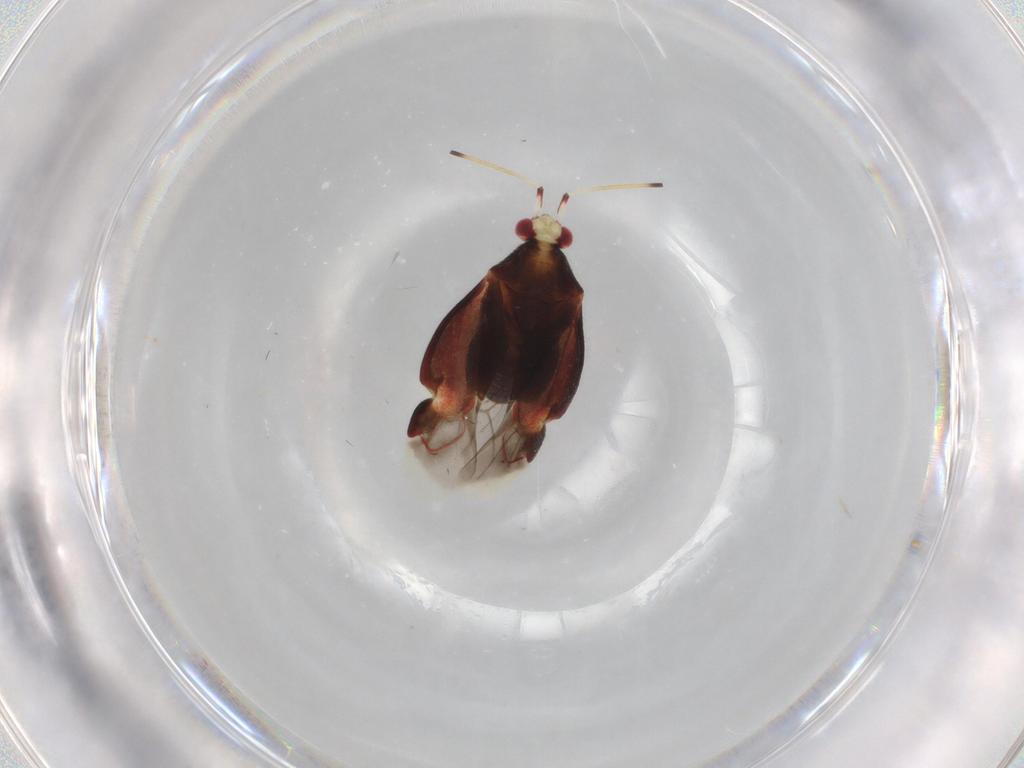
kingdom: Animalia
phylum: Arthropoda
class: Insecta
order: Hemiptera
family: Miridae
